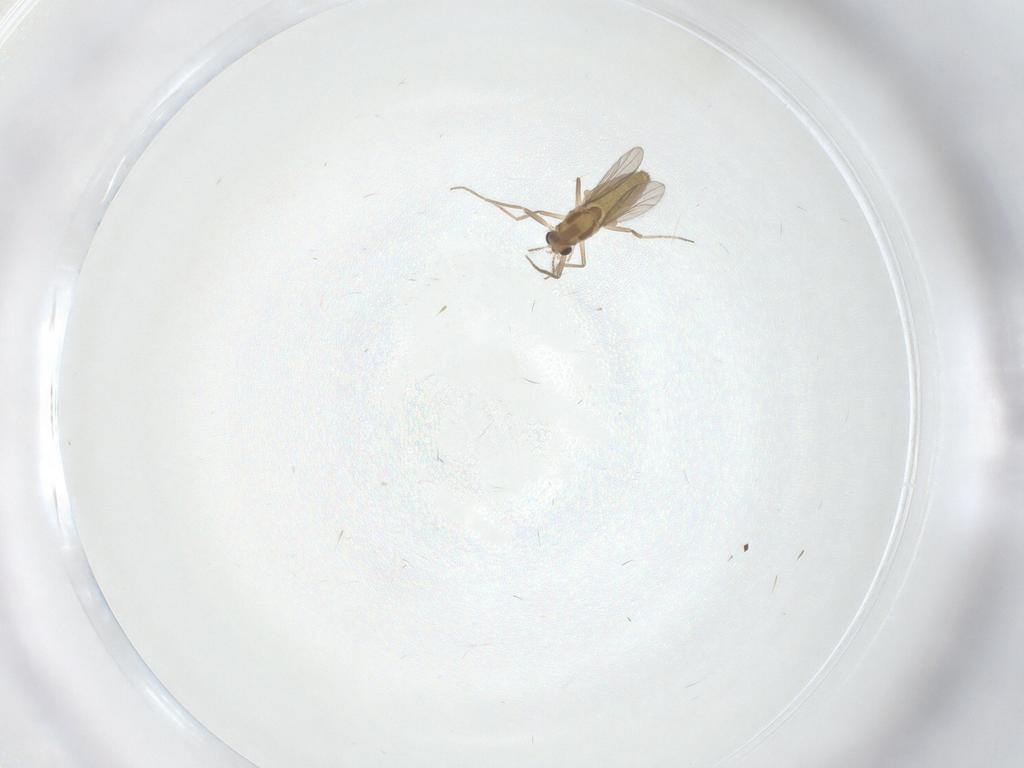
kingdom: Animalia
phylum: Arthropoda
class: Insecta
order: Diptera
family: Chironomidae
